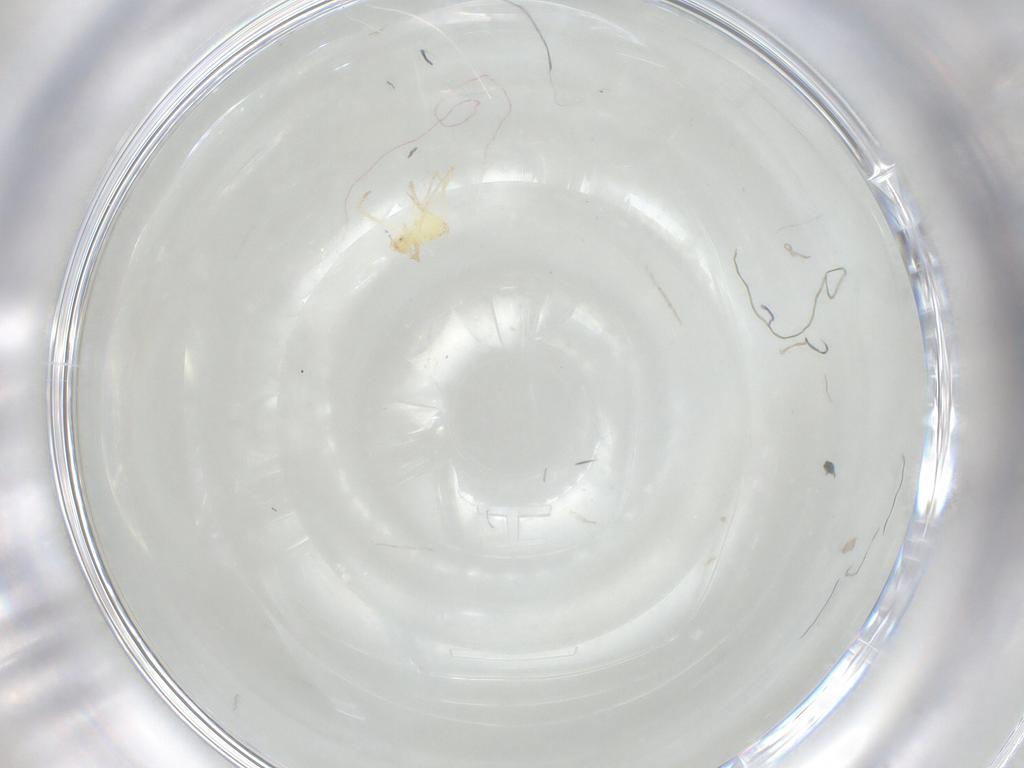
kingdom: Animalia
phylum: Arthropoda
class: Arachnida
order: Trombidiformes
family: Erythraeidae
